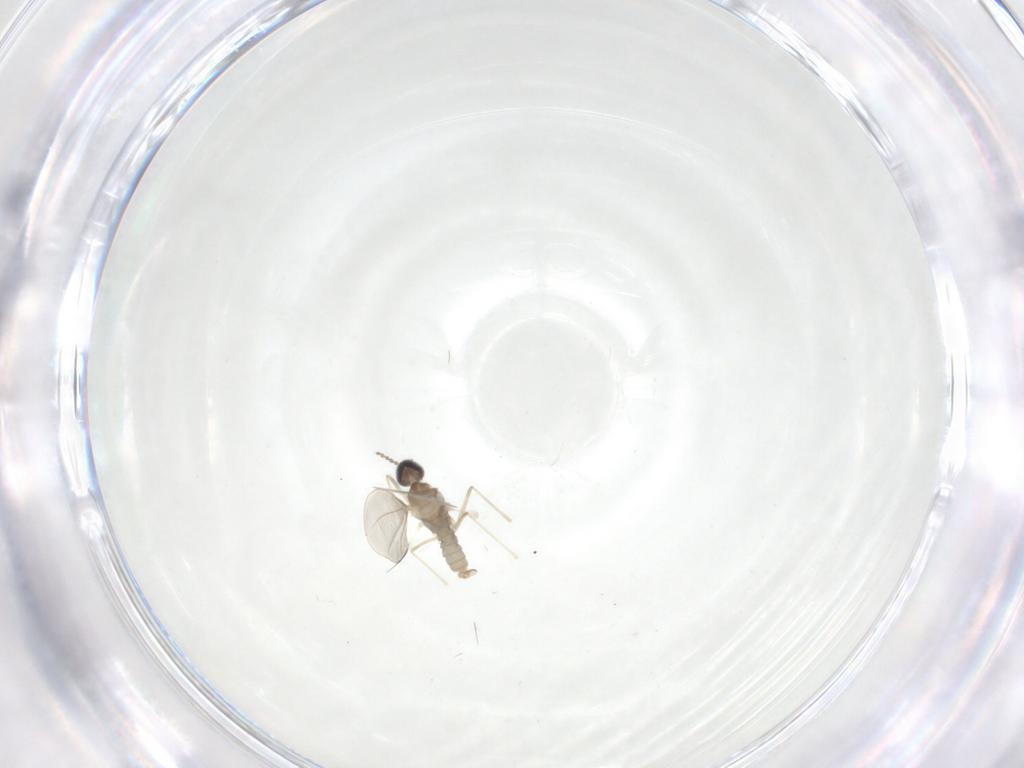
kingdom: Animalia
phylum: Arthropoda
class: Insecta
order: Diptera
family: Cecidomyiidae
